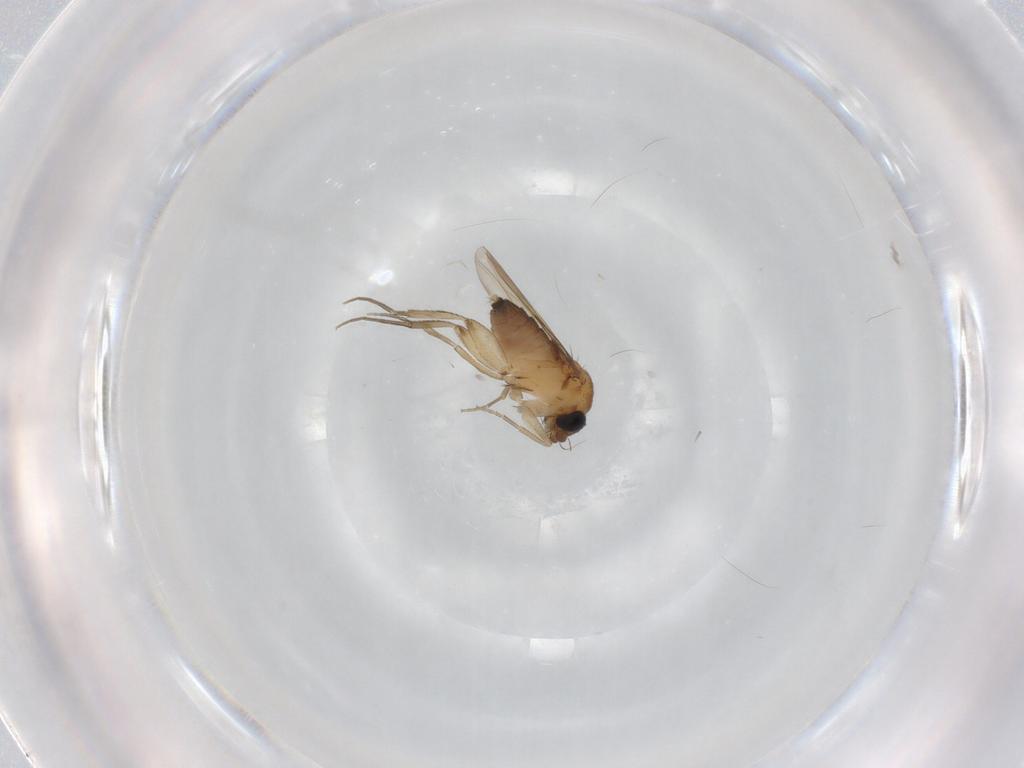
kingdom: Animalia
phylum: Arthropoda
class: Insecta
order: Diptera
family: Phoridae
